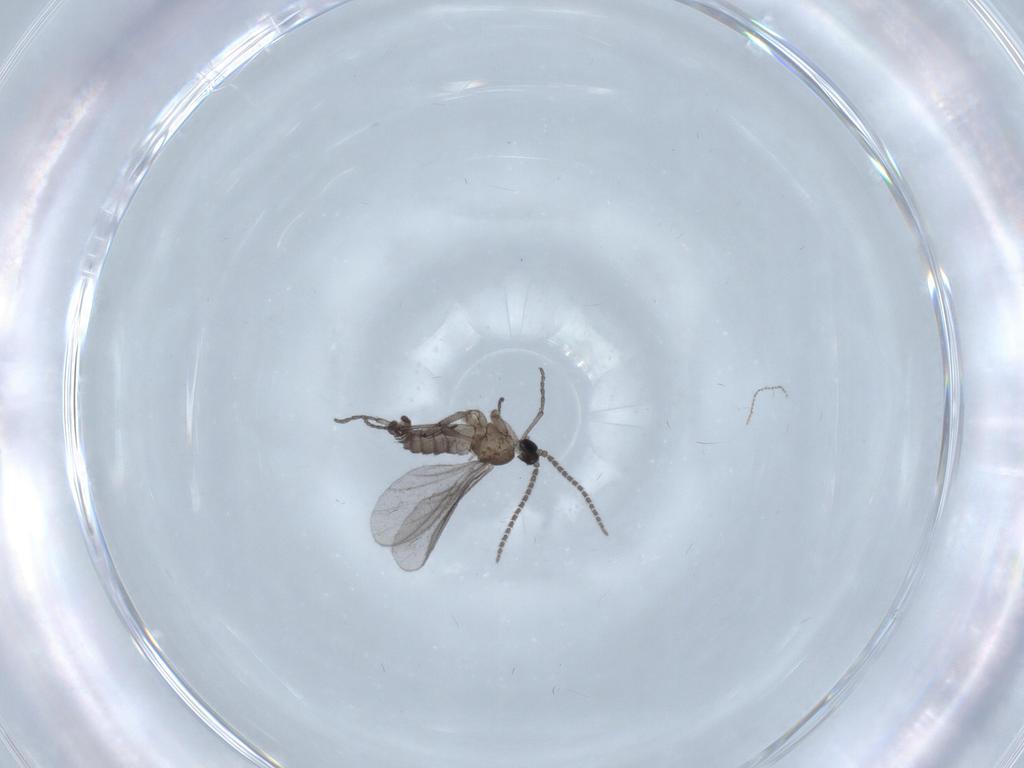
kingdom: Animalia
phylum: Arthropoda
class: Insecta
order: Diptera
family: Sciaridae
